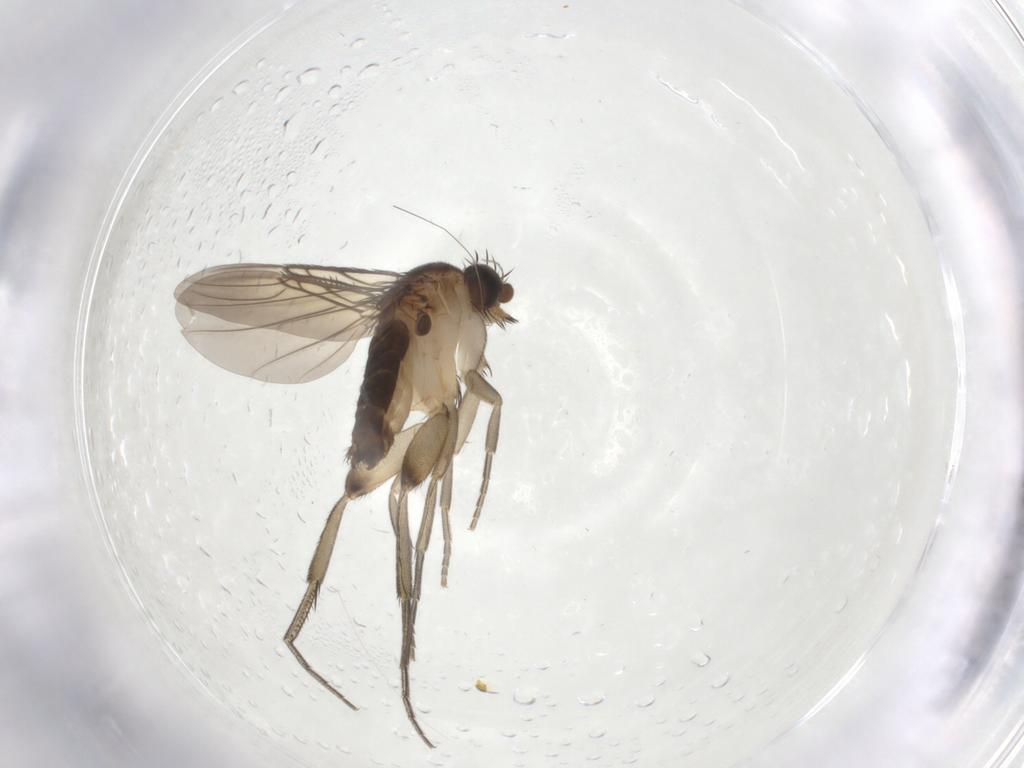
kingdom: Animalia
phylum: Arthropoda
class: Insecta
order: Diptera
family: Phoridae
